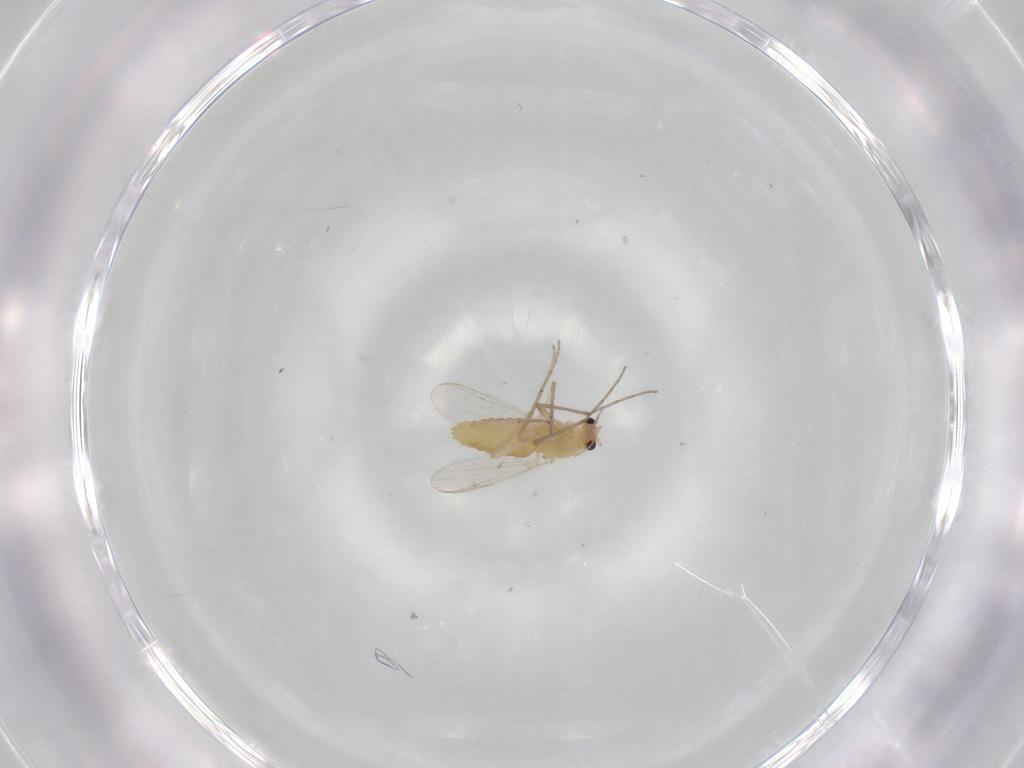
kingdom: Animalia
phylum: Arthropoda
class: Insecta
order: Diptera
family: Chironomidae
